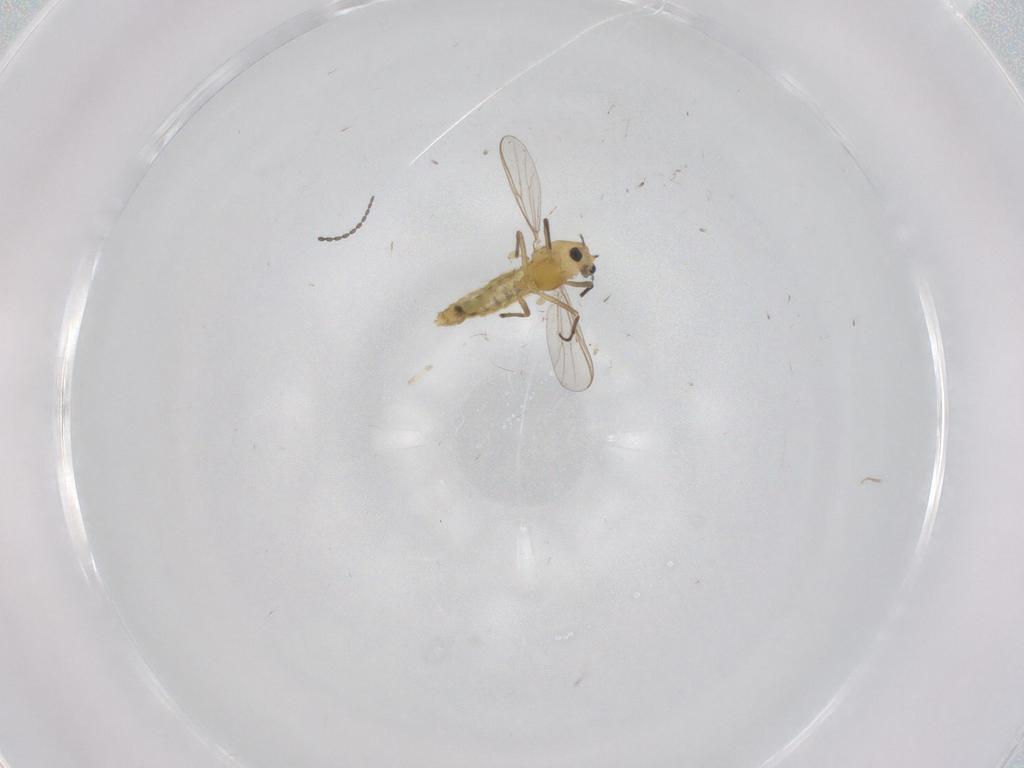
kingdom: Animalia
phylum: Arthropoda
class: Insecta
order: Diptera
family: Chironomidae
